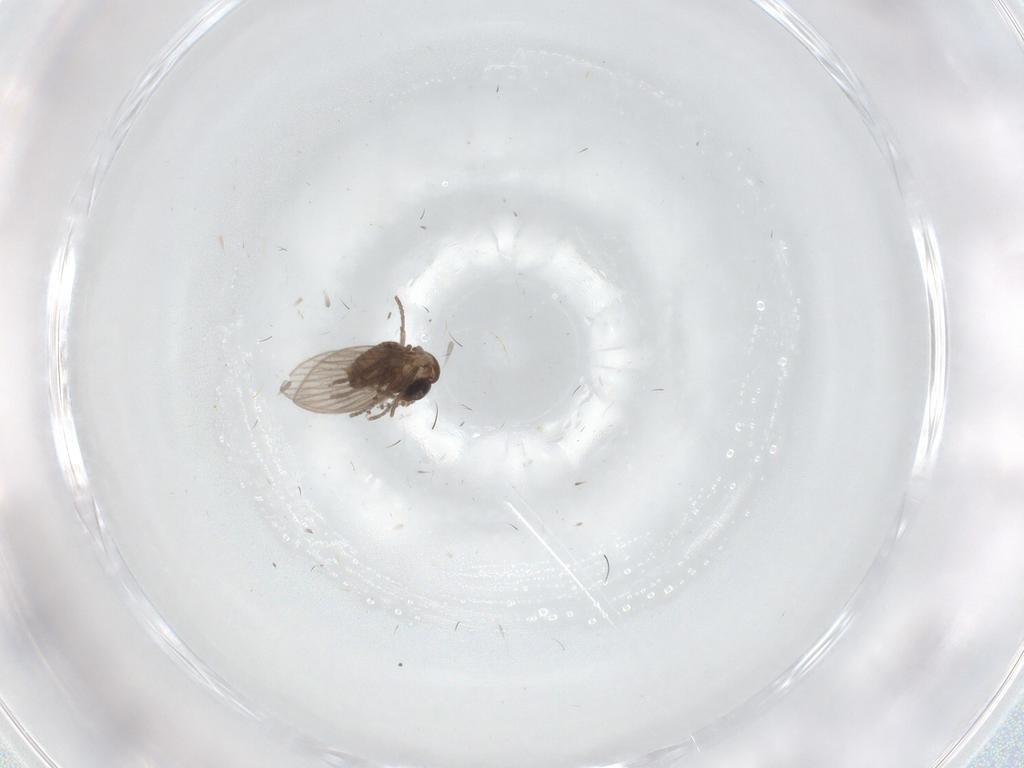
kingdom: Animalia
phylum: Arthropoda
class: Insecta
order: Diptera
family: Psychodidae
